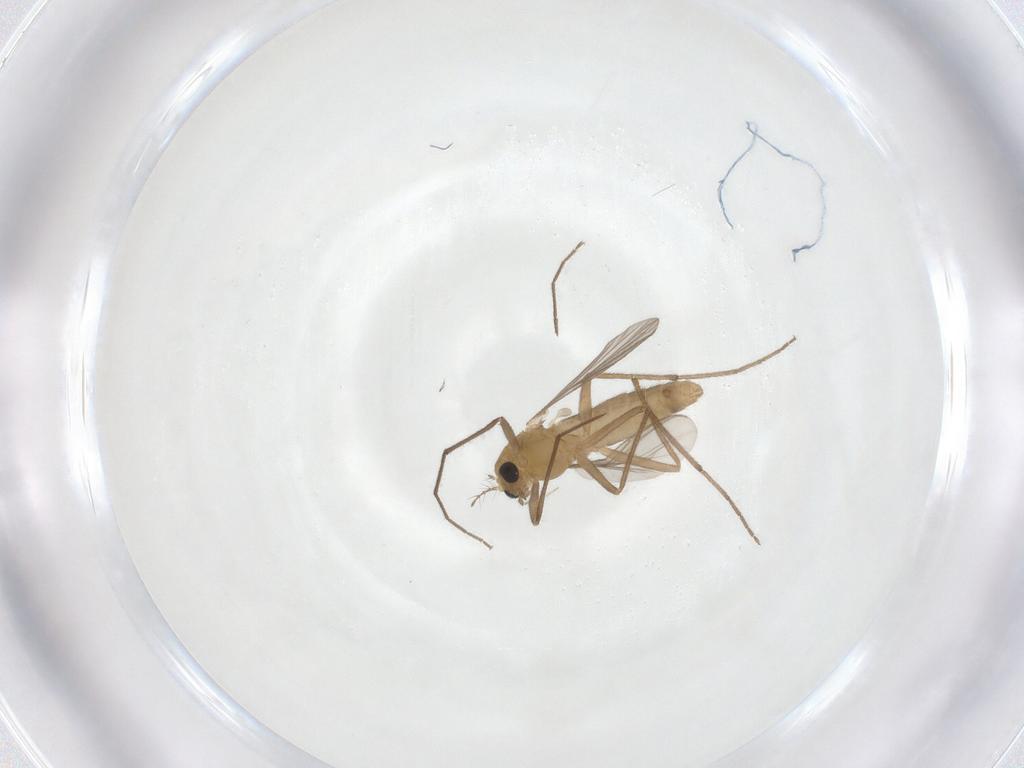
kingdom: Animalia
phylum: Arthropoda
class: Insecta
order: Diptera
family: Chironomidae
